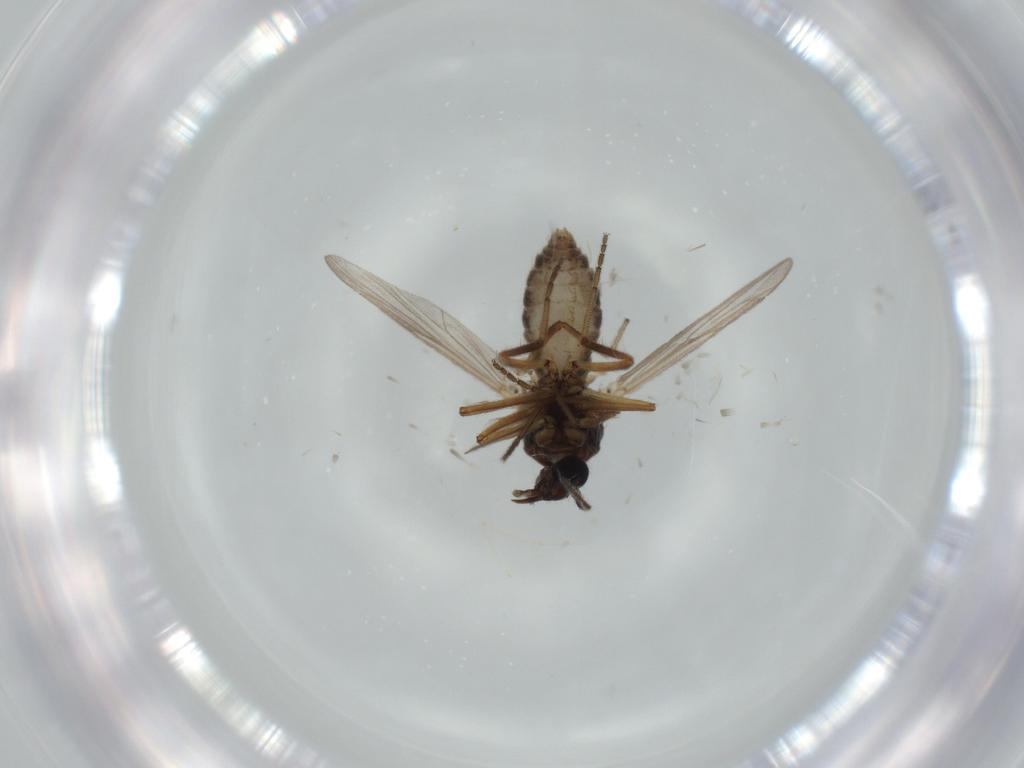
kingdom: Animalia
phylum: Arthropoda
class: Insecta
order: Diptera
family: Ceratopogonidae
